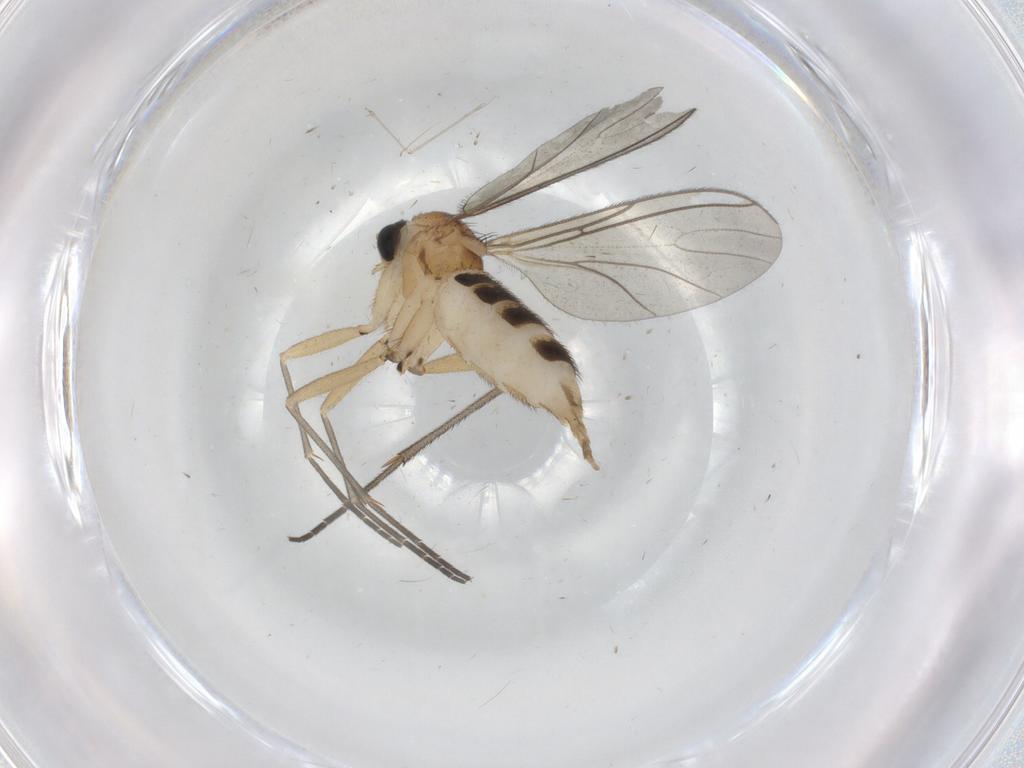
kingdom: Animalia
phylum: Arthropoda
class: Insecta
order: Diptera
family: Sciaridae
